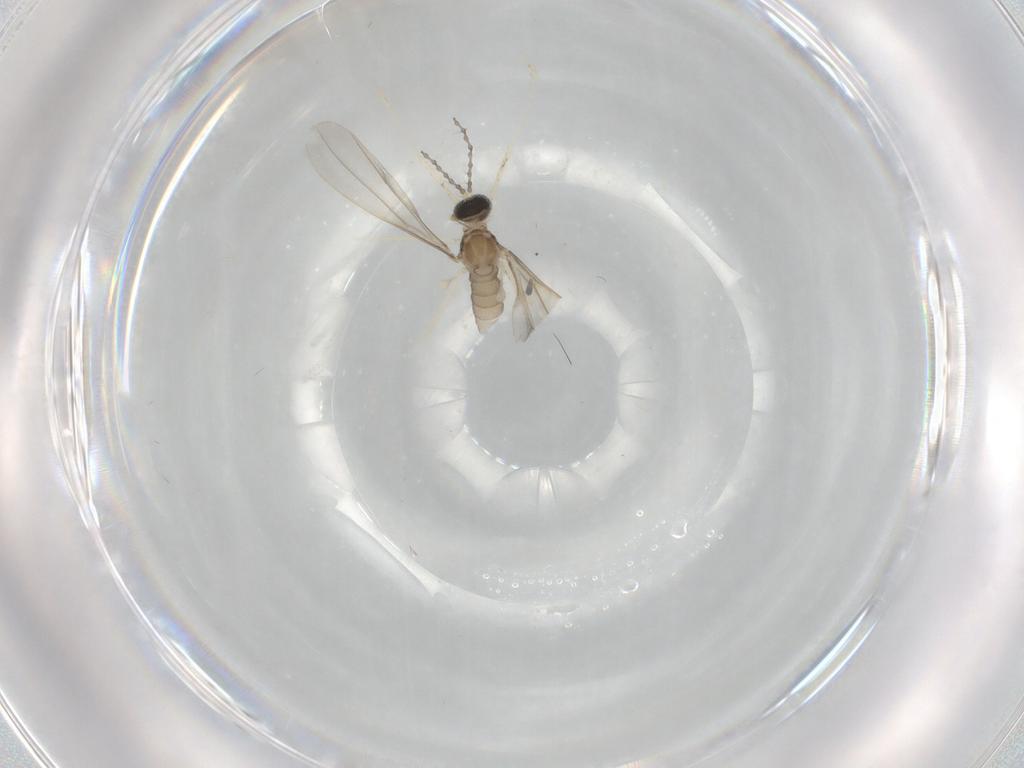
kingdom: Animalia
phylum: Arthropoda
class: Insecta
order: Diptera
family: Cecidomyiidae
